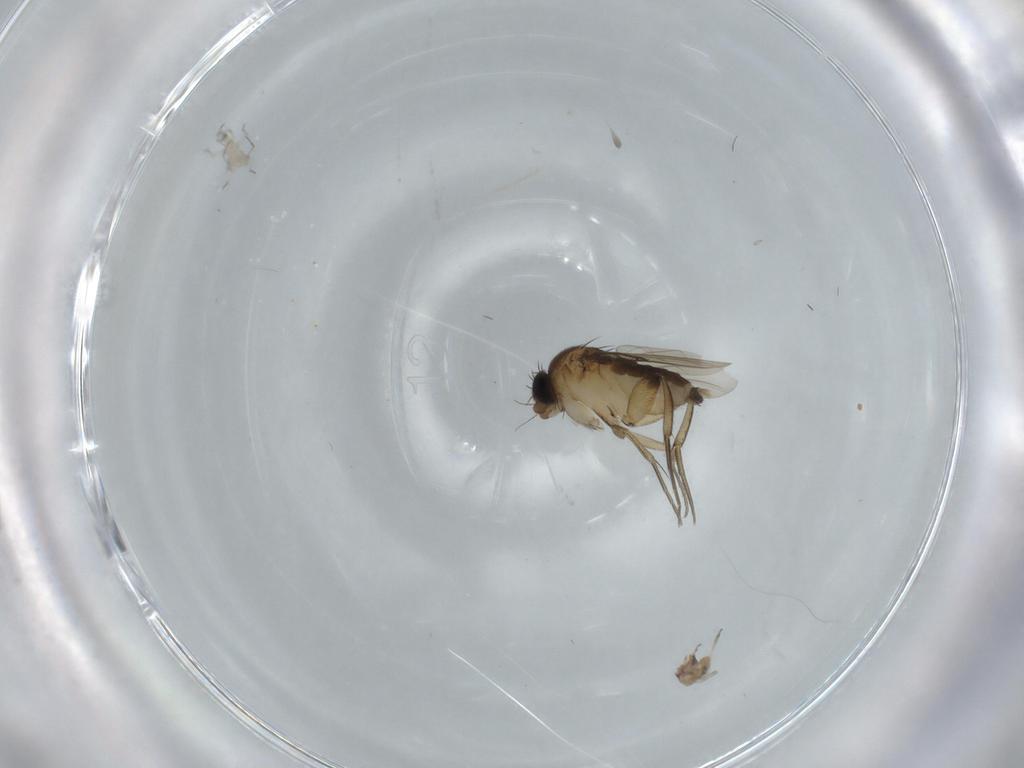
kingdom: Animalia
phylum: Arthropoda
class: Insecta
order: Diptera
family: Phoridae
